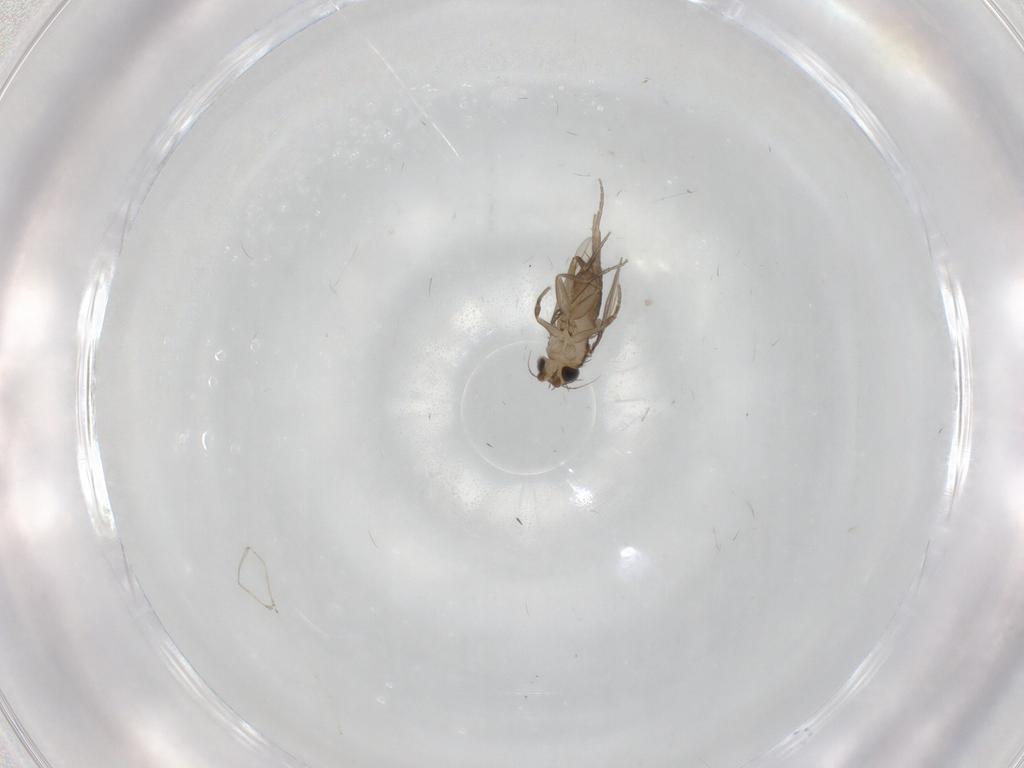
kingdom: Animalia
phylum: Arthropoda
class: Insecta
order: Diptera
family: Phoridae
